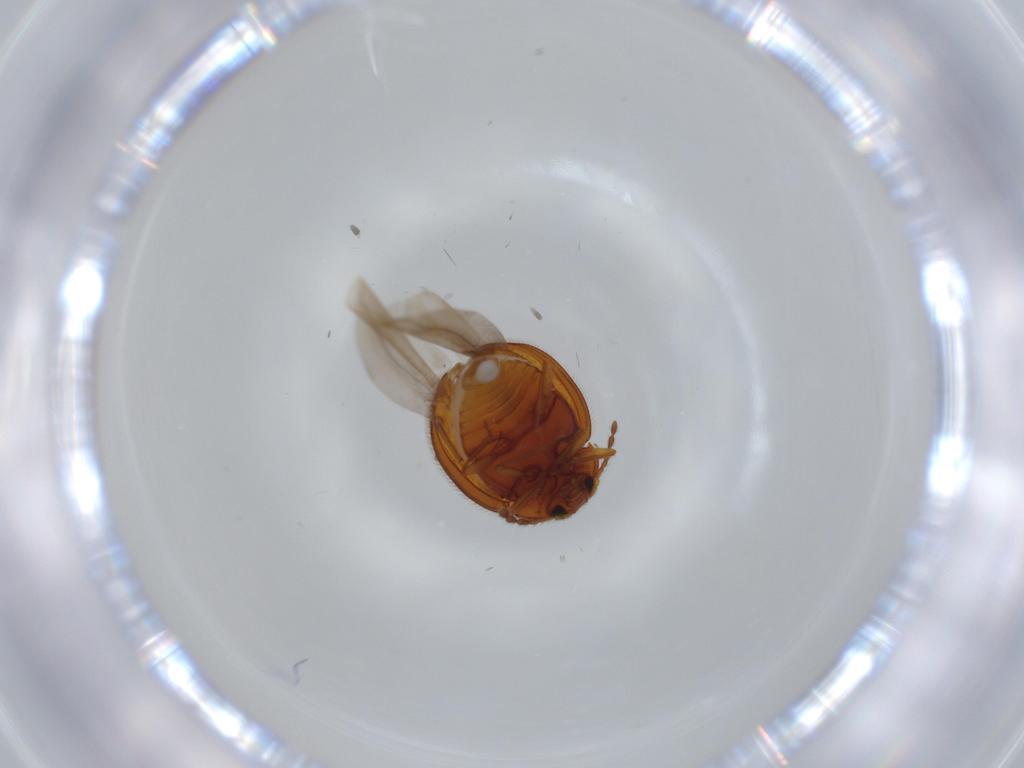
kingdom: Animalia
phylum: Arthropoda
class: Insecta
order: Coleoptera
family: Anamorphidae
